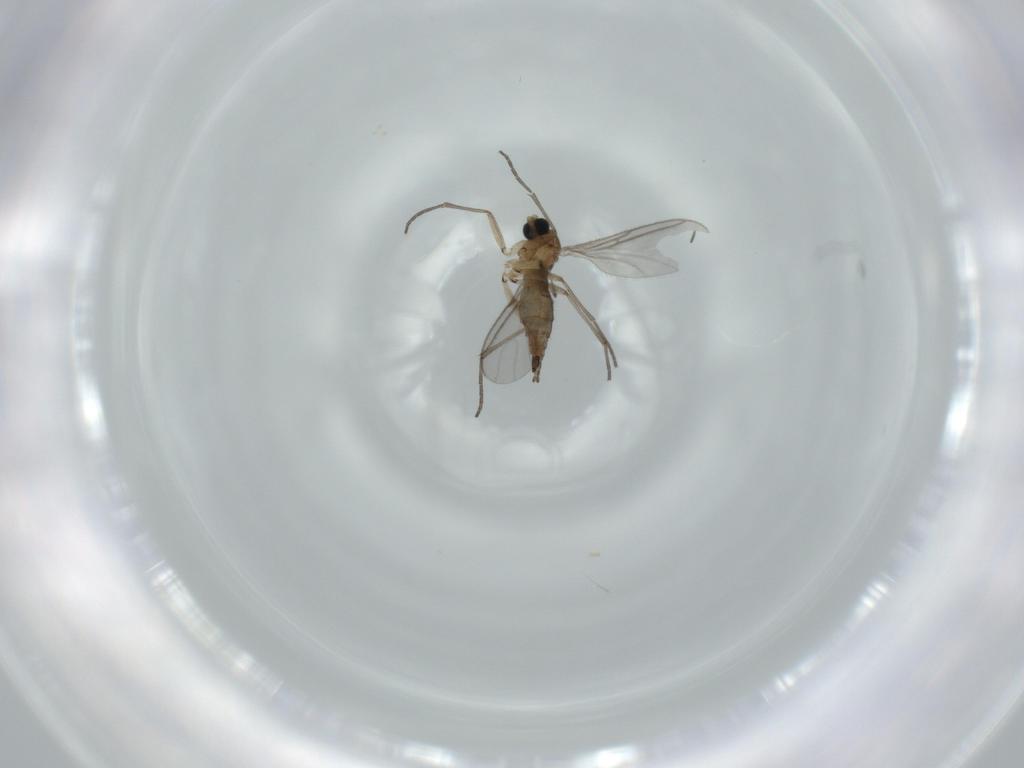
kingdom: Animalia
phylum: Arthropoda
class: Insecta
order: Diptera
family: Sciaridae
